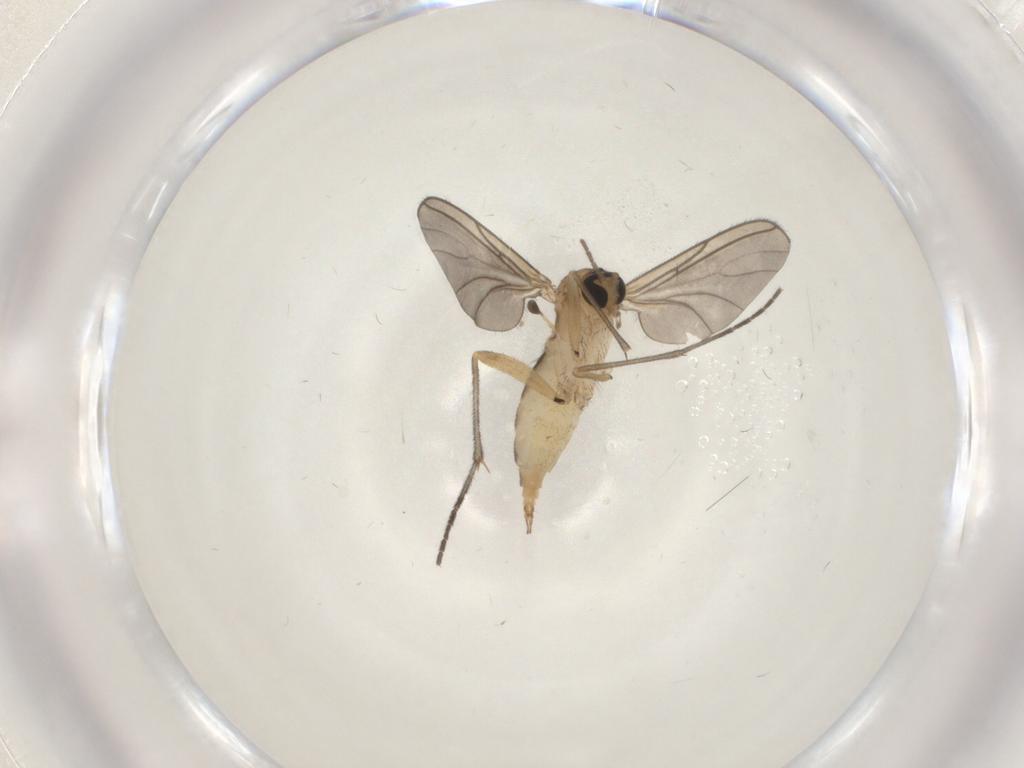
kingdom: Animalia
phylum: Arthropoda
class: Insecta
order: Diptera
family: Sciaridae
